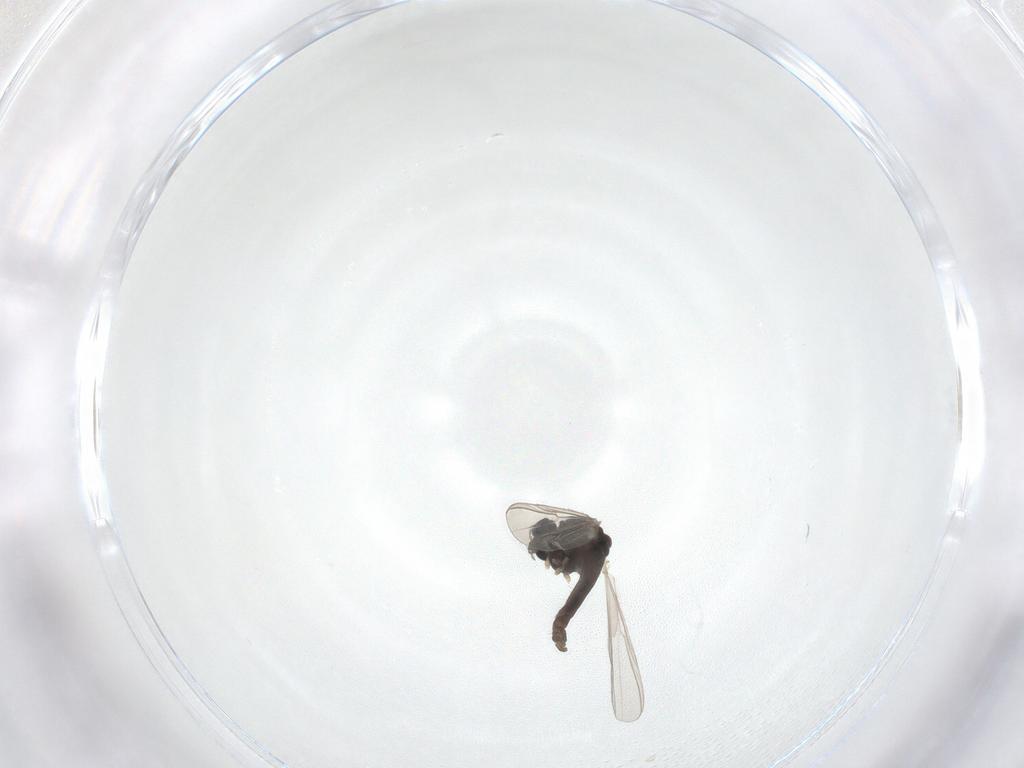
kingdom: Animalia
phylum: Arthropoda
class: Insecta
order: Diptera
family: Chironomidae
